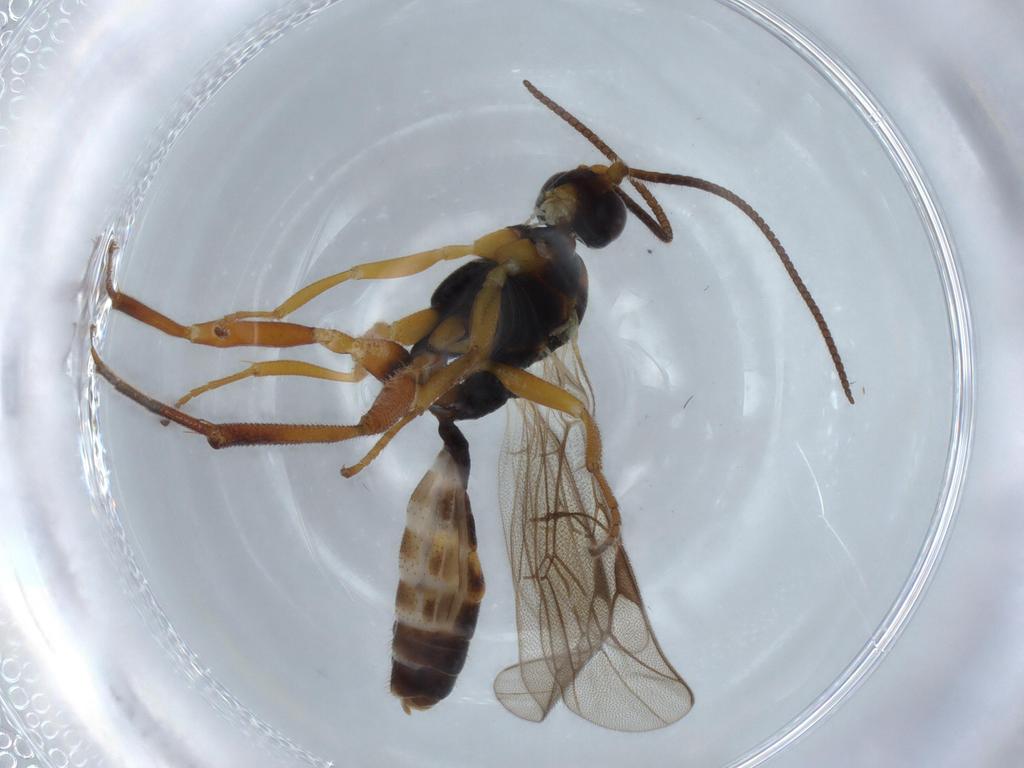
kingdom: Animalia
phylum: Arthropoda
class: Insecta
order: Hymenoptera
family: Ichneumonidae
